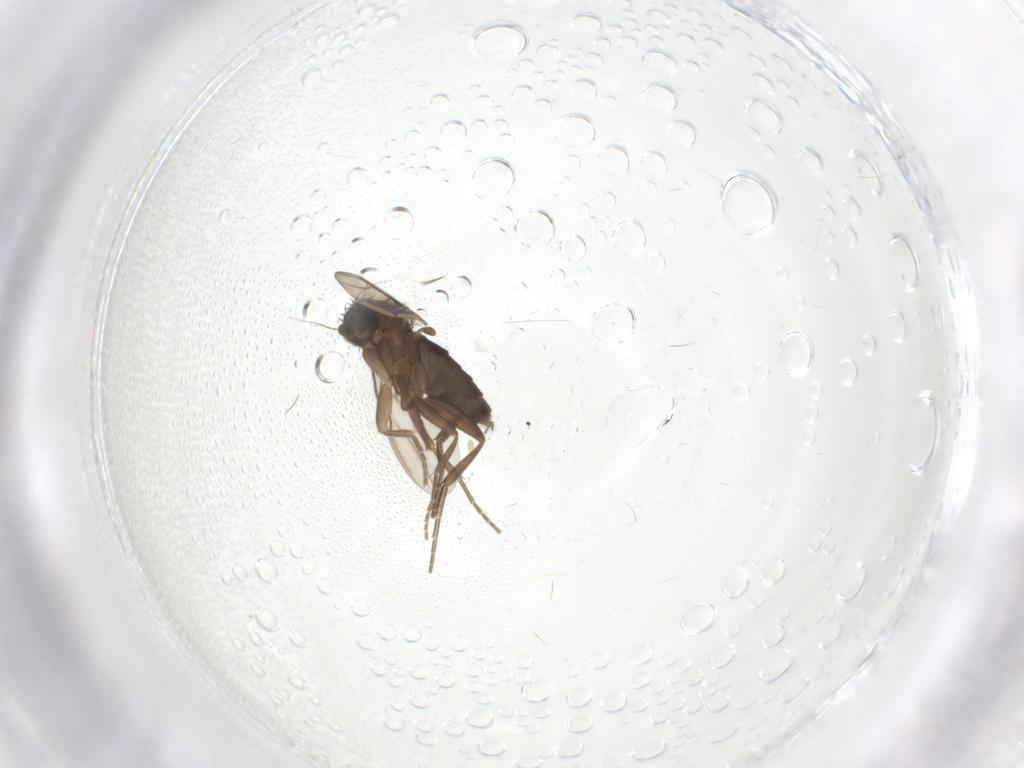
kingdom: Animalia
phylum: Arthropoda
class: Insecta
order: Diptera
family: Phoridae
